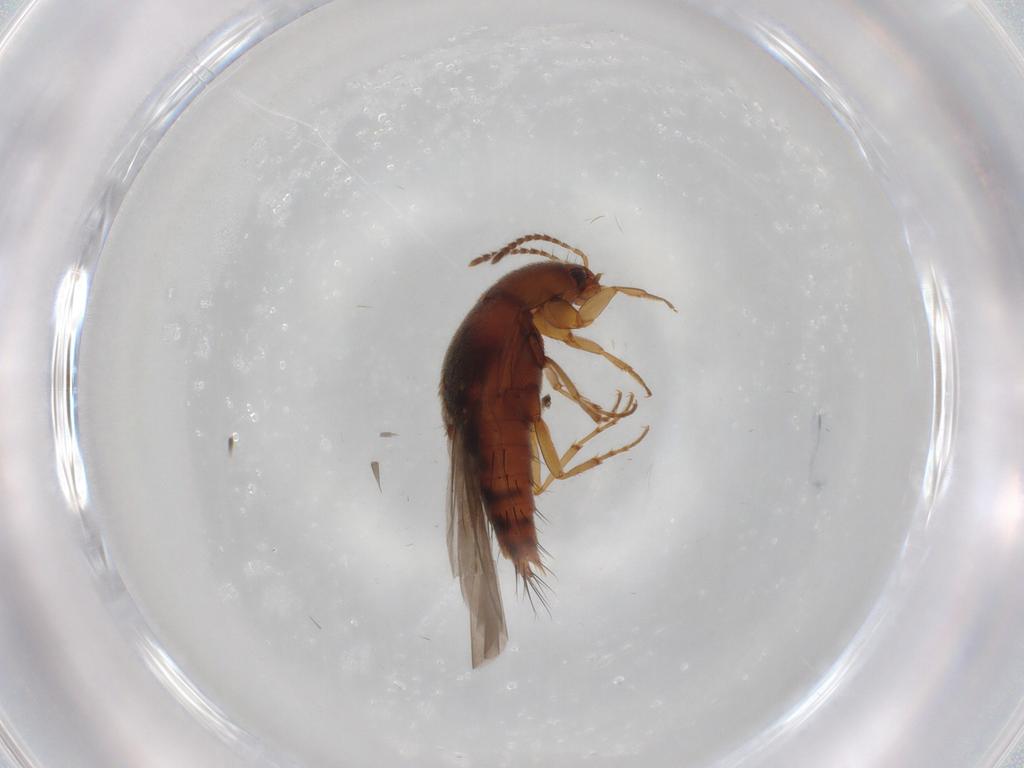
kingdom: Animalia
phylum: Arthropoda
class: Insecta
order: Coleoptera
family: Staphylinidae
